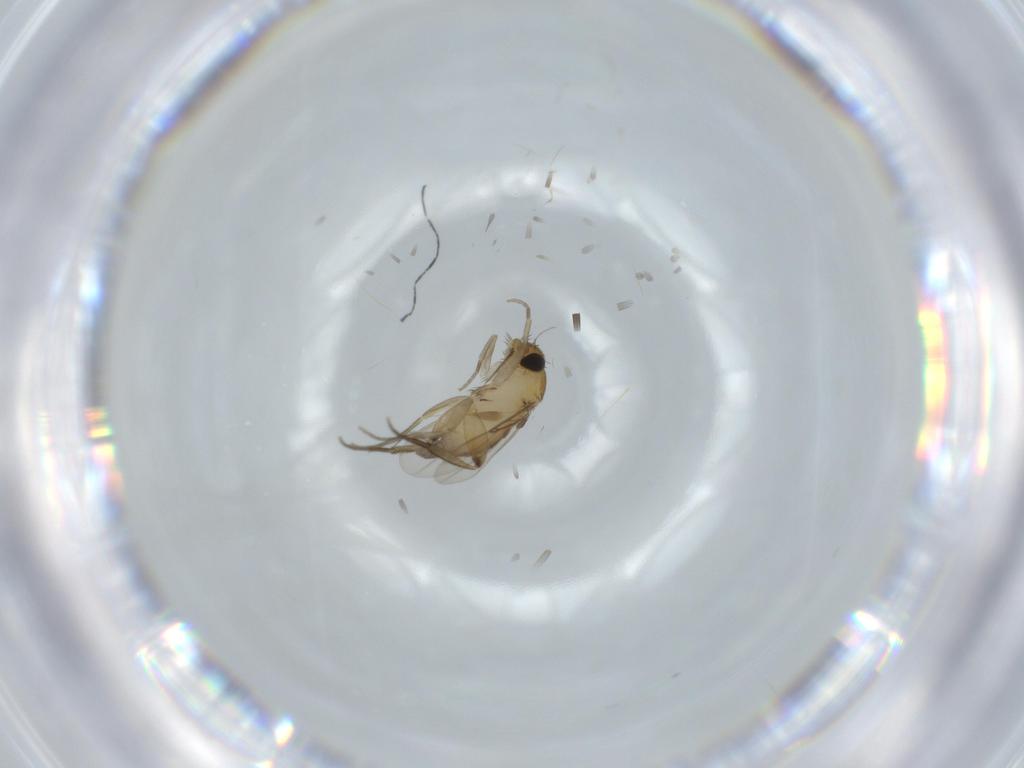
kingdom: Animalia
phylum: Arthropoda
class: Insecta
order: Diptera
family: Phoridae
